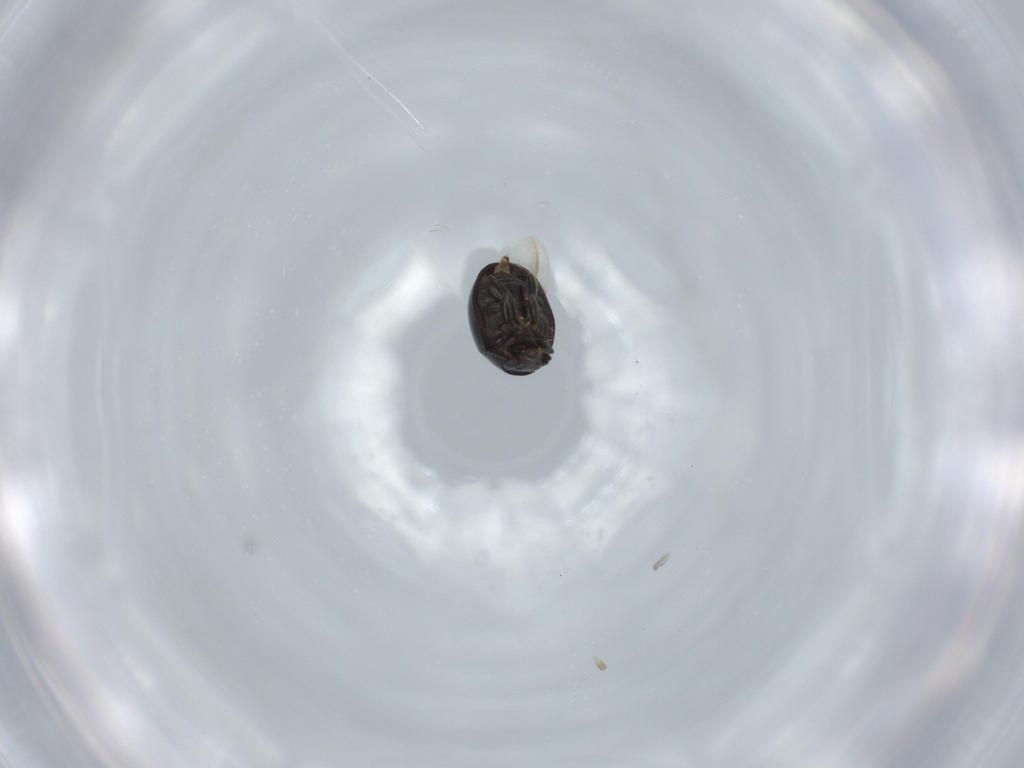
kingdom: Animalia
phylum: Arthropoda
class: Insecta
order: Coleoptera
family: Coccinellidae
